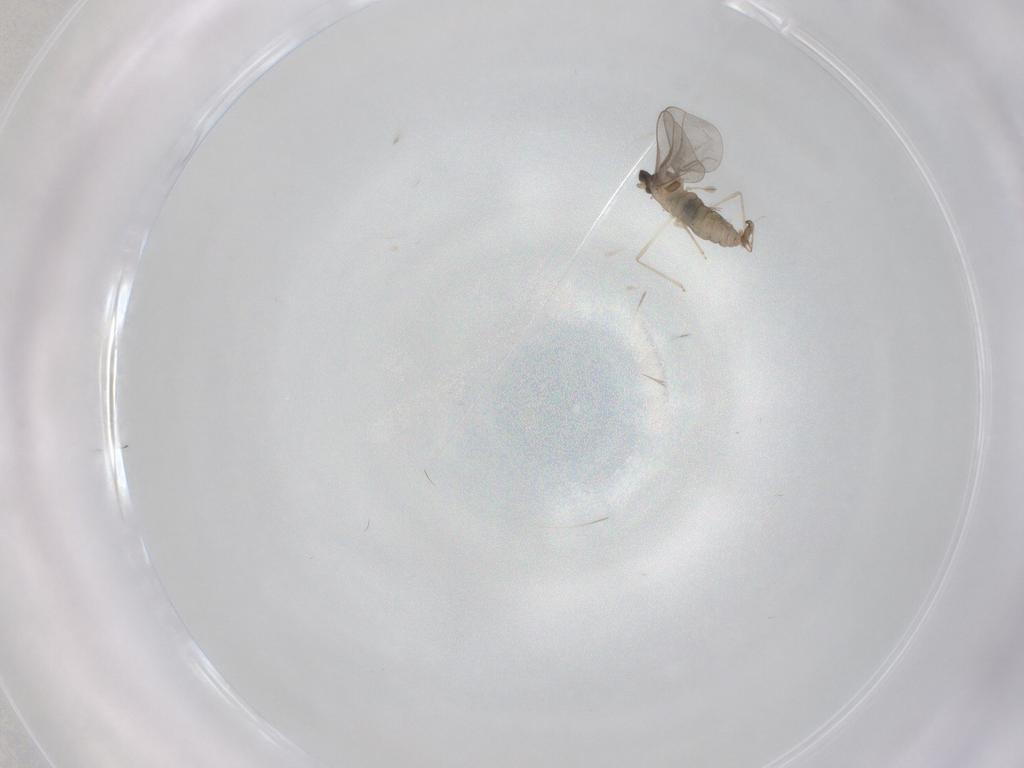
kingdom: Animalia
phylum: Arthropoda
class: Insecta
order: Diptera
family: Cecidomyiidae
